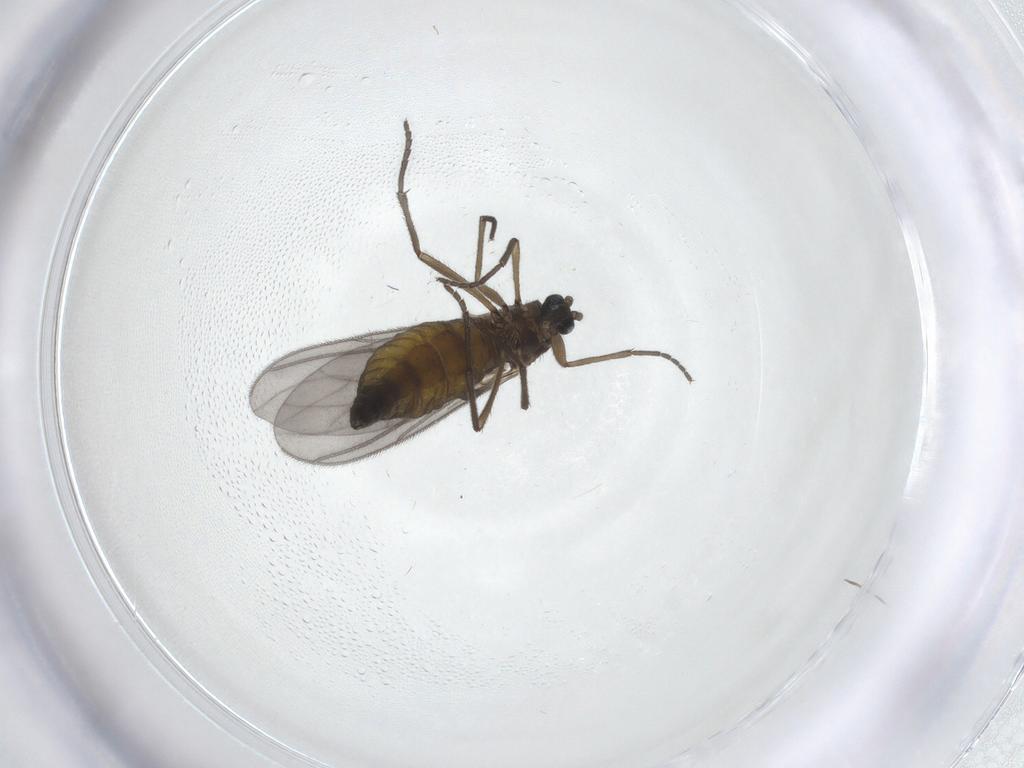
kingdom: Animalia
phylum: Arthropoda
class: Insecta
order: Diptera
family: Sciaridae
